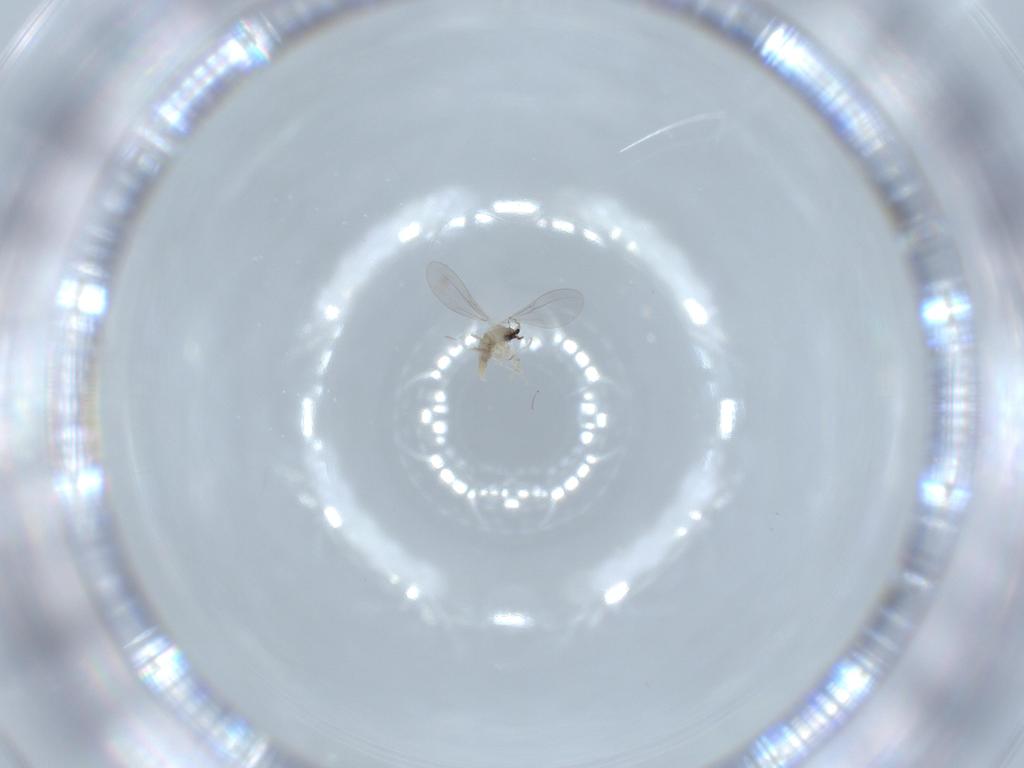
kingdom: Animalia
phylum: Arthropoda
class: Insecta
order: Diptera
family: Cecidomyiidae
